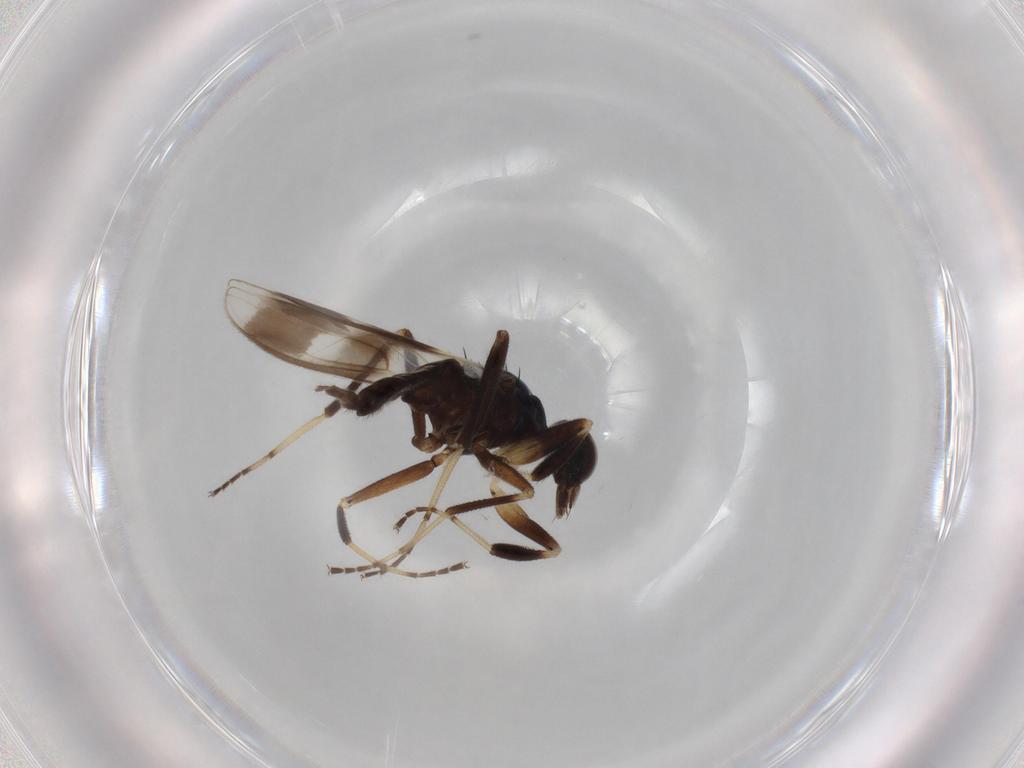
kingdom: Animalia
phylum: Arthropoda
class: Insecta
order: Diptera
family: Hybotidae
